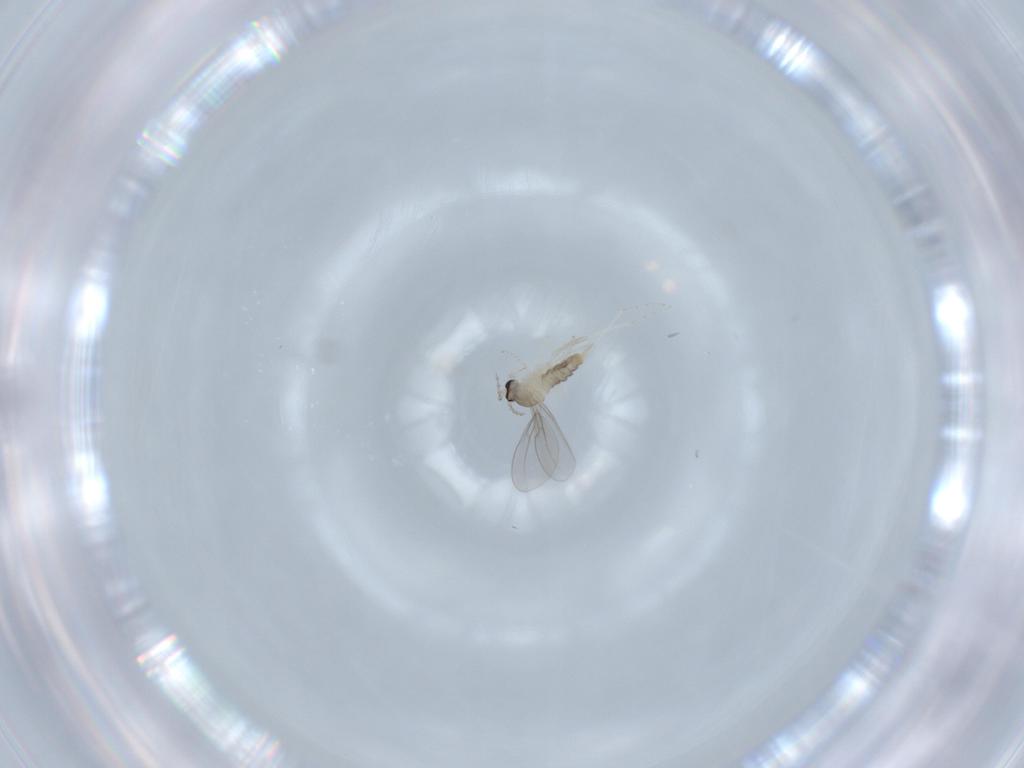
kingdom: Animalia
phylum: Arthropoda
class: Insecta
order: Diptera
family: Cecidomyiidae
